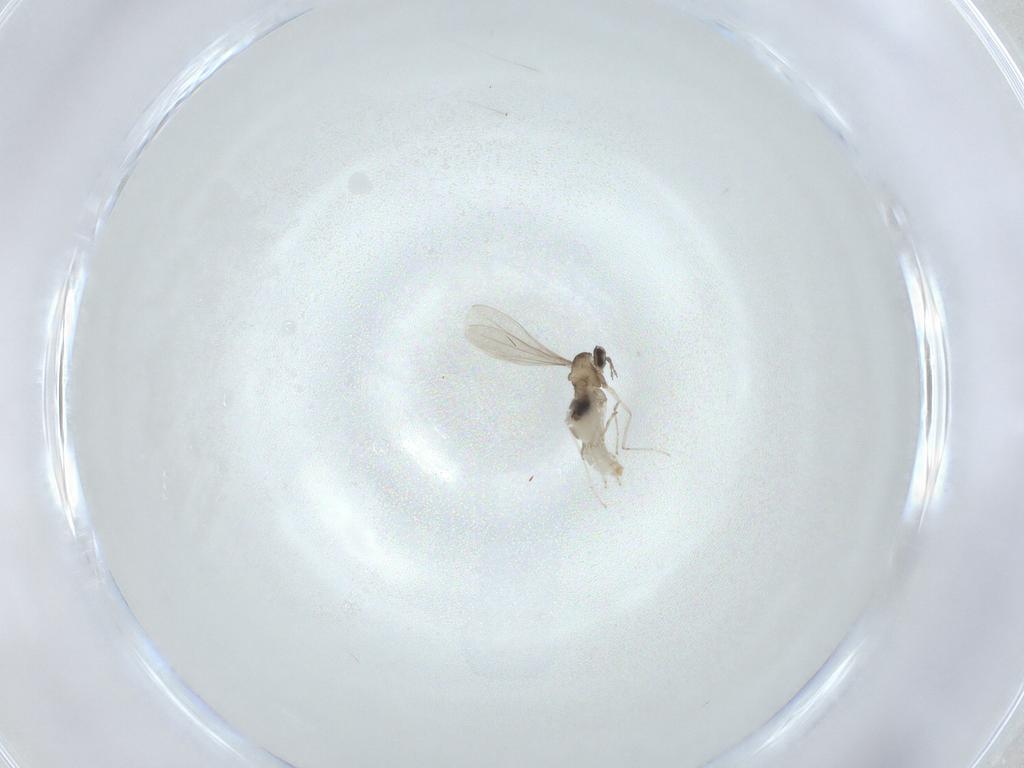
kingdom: Animalia
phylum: Arthropoda
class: Insecta
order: Diptera
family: Cecidomyiidae
